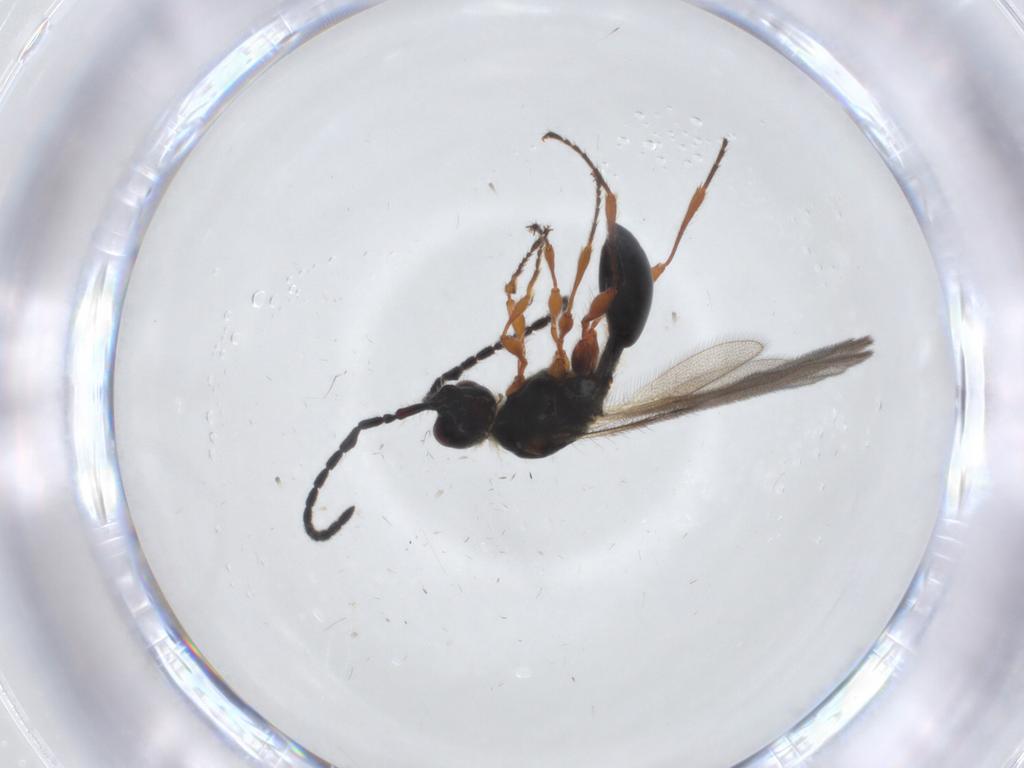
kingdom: Animalia
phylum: Arthropoda
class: Insecta
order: Hymenoptera
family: Diapriidae
